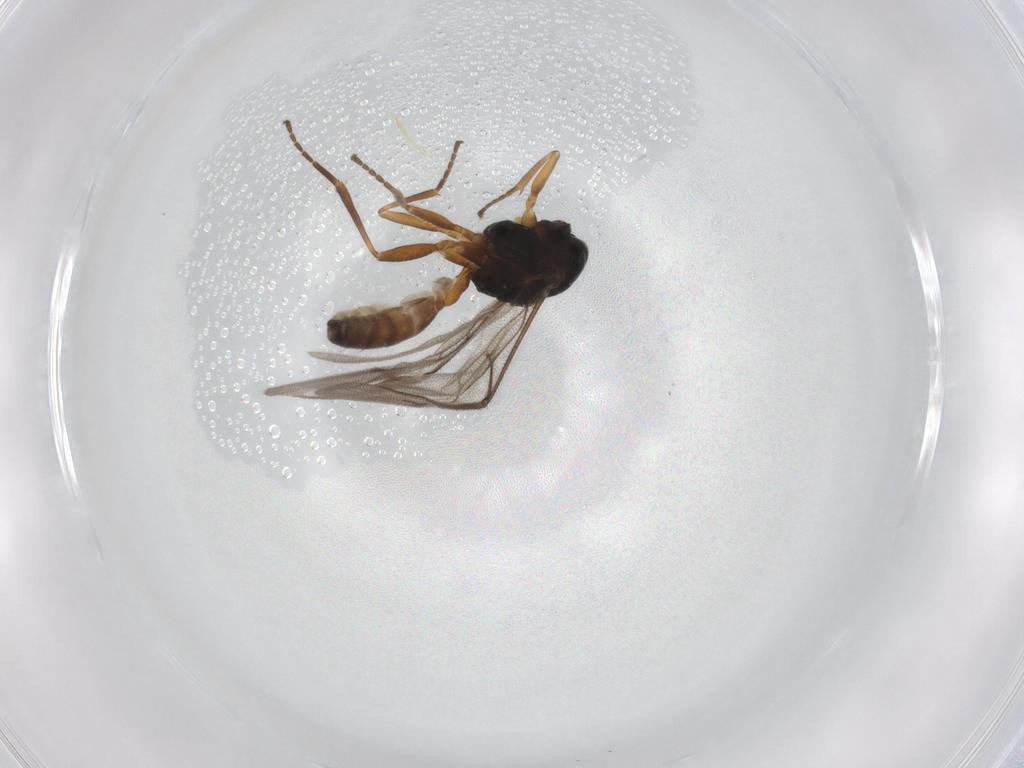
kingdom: Animalia
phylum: Arthropoda
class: Insecta
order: Hymenoptera
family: Braconidae
